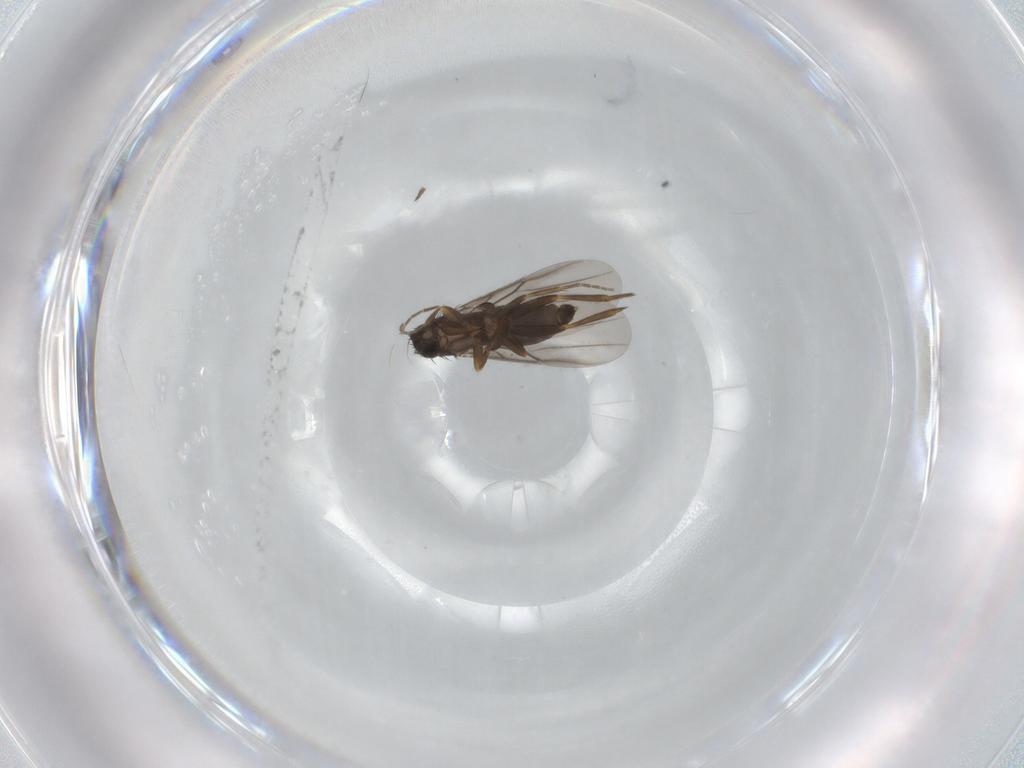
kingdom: Animalia
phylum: Arthropoda
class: Insecta
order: Diptera
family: Phoridae
